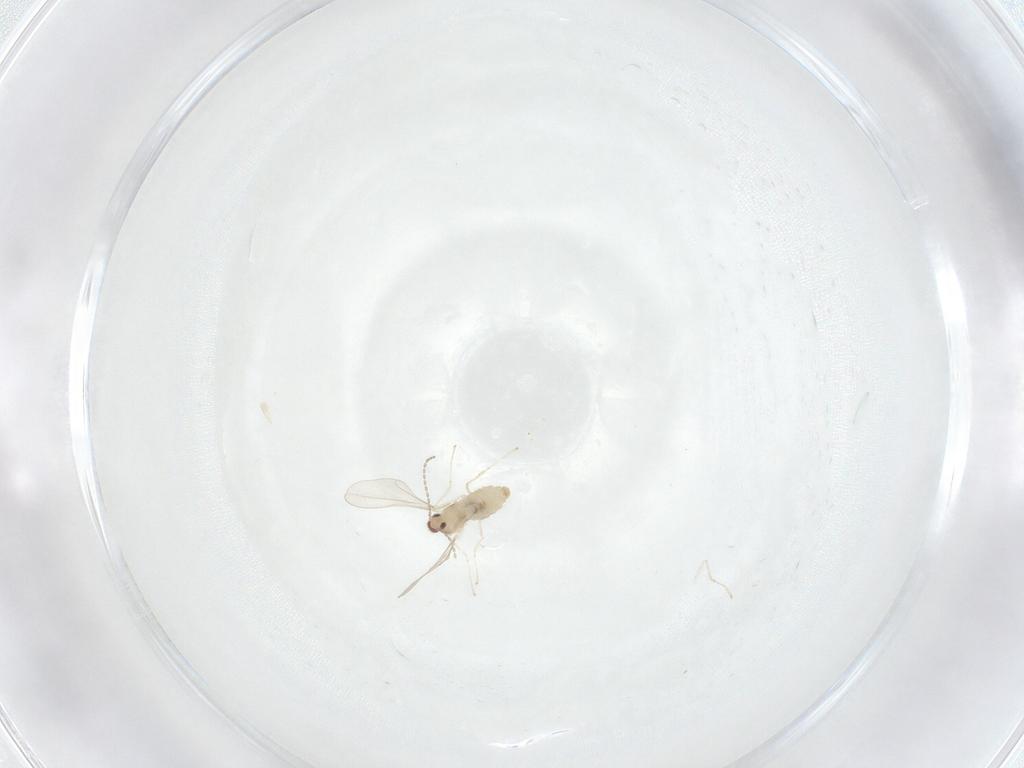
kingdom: Animalia
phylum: Arthropoda
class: Insecta
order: Diptera
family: Cecidomyiidae
